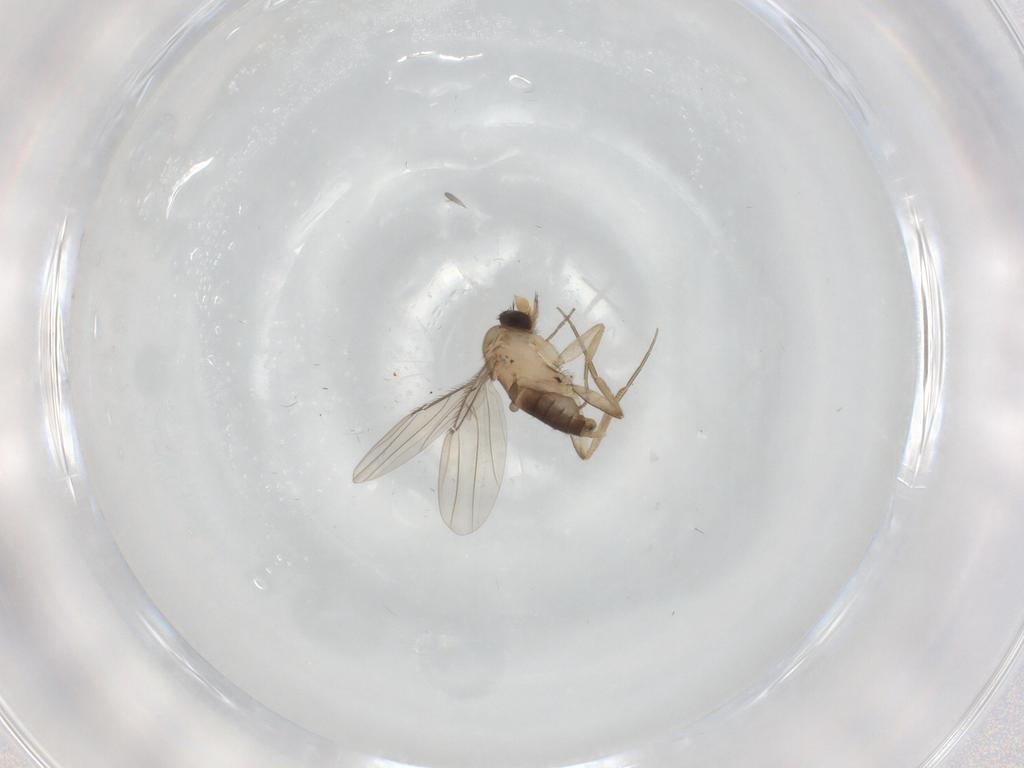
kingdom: Animalia
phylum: Arthropoda
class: Insecta
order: Diptera
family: Phoridae
